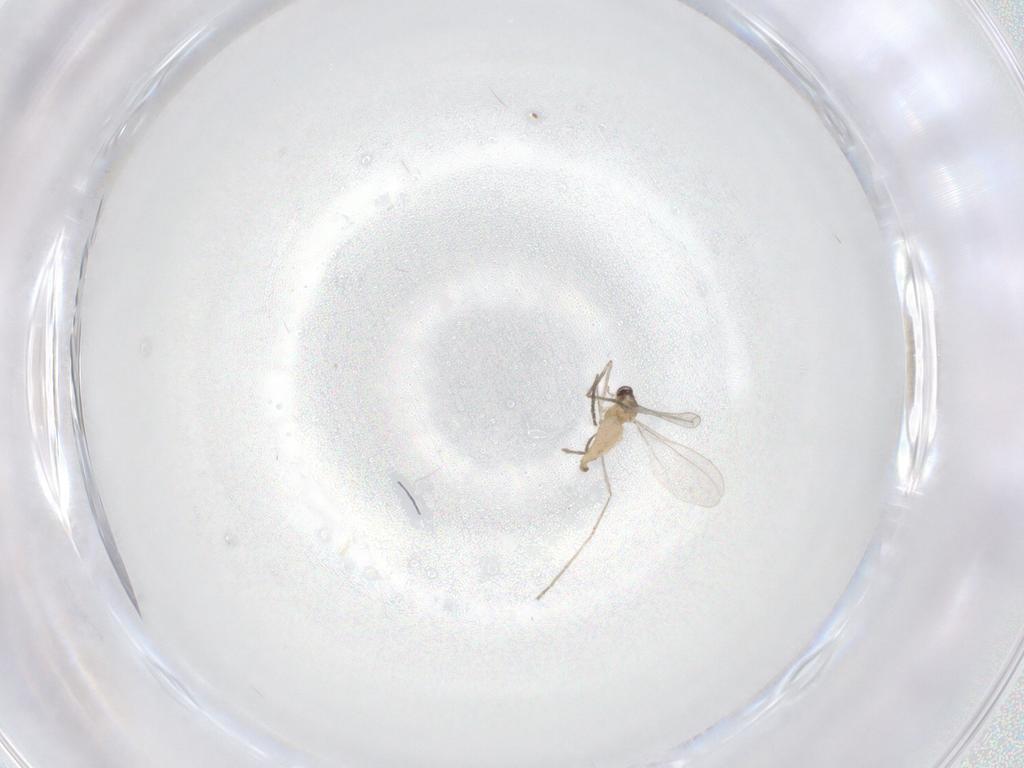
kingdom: Animalia
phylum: Arthropoda
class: Insecta
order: Diptera
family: Cecidomyiidae
